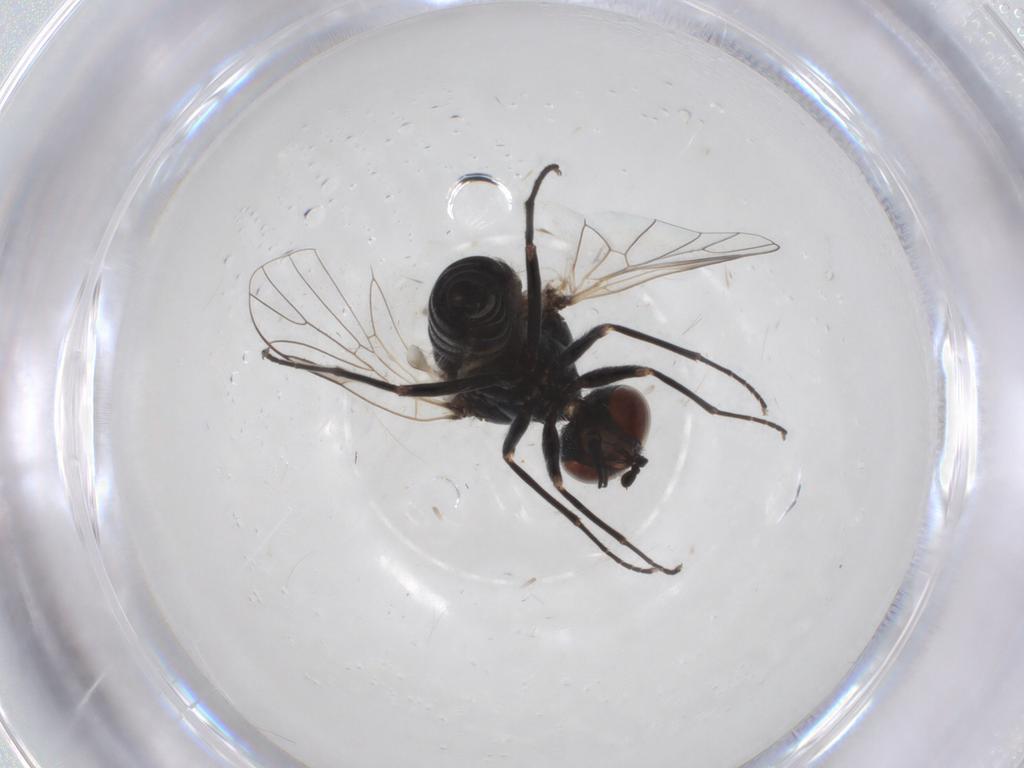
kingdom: Animalia
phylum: Arthropoda
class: Insecta
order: Diptera
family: Bombyliidae
